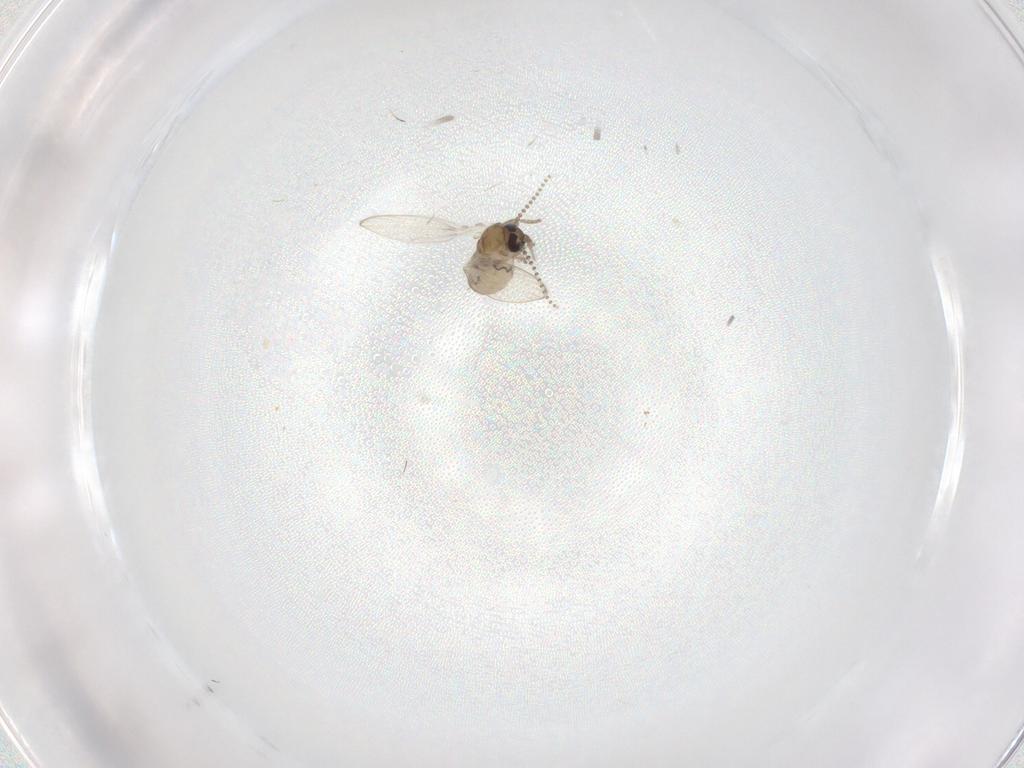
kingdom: Animalia
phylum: Arthropoda
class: Insecta
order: Diptera
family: Psychodidae
